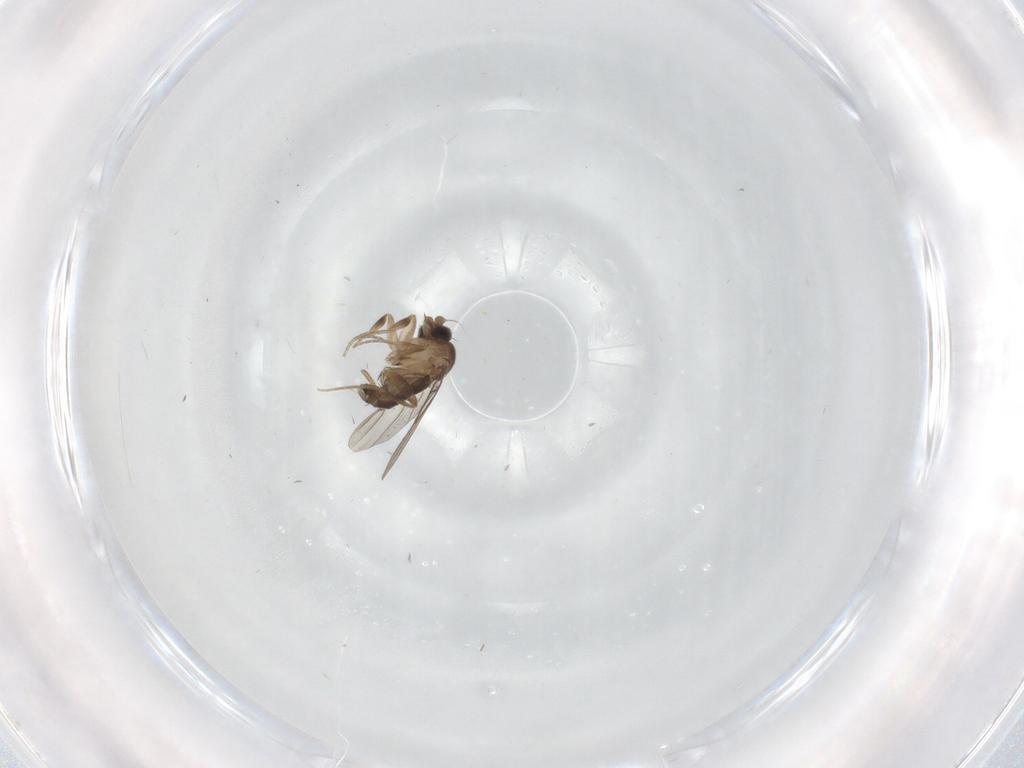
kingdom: Animalia
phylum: Arthropoda
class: Insecta
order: Diptera
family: Phoridae
